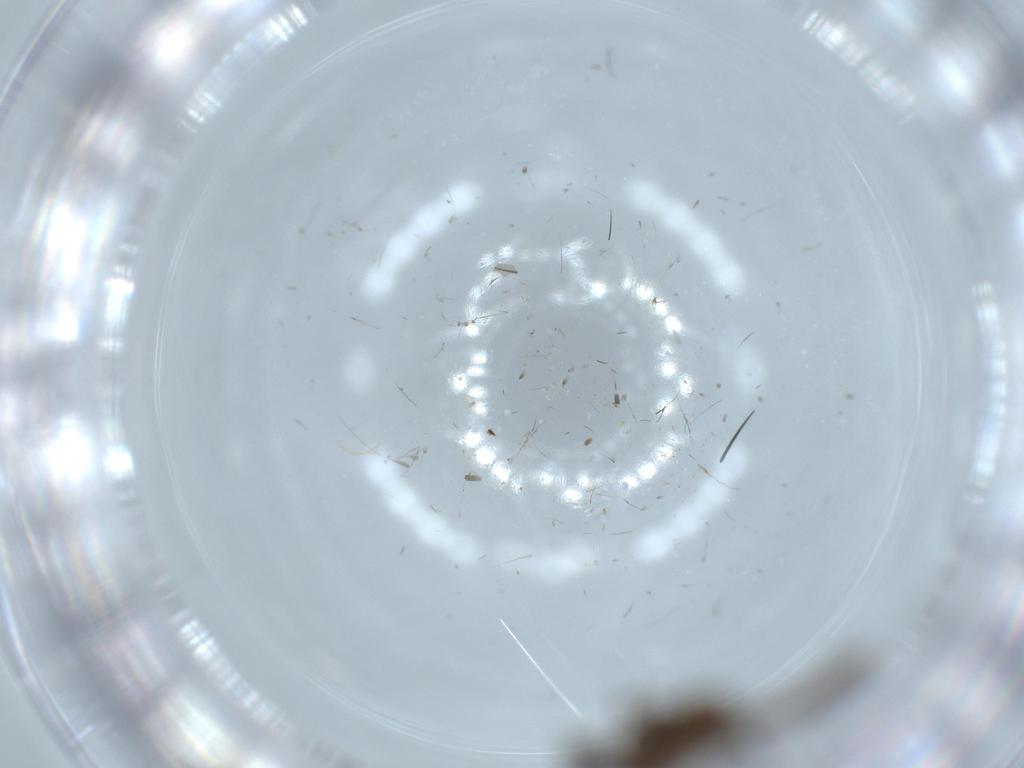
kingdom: Animalia
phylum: Arthropoda
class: Insecta
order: Diptera
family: Cecidomyiidae
